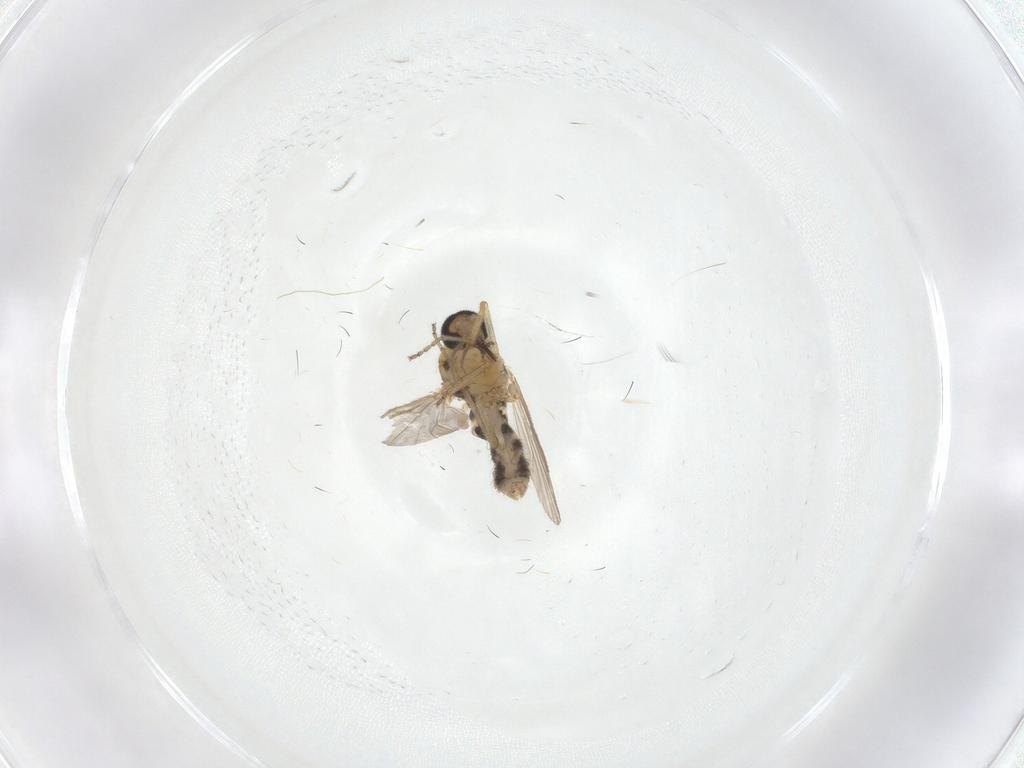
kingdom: Animalia
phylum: Arthropoda
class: Insecta
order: Diptera
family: Ceratopogonidae
